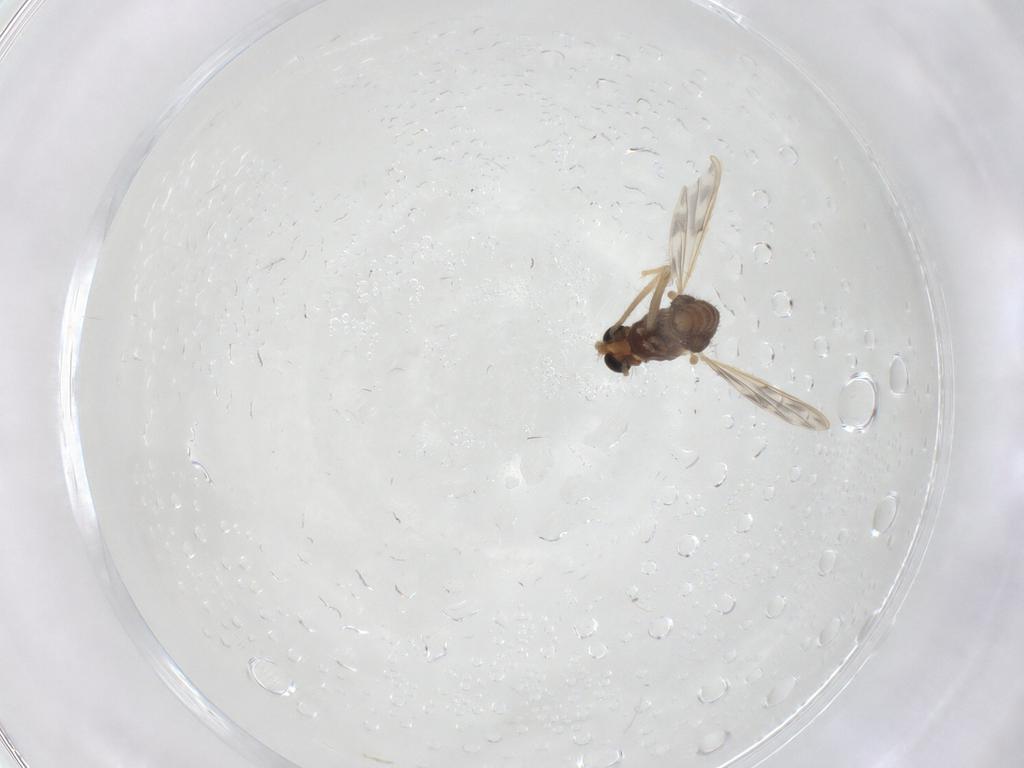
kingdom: Animalia
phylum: Arthropoda
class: Insecta
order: Diptera
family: Chironomidae
